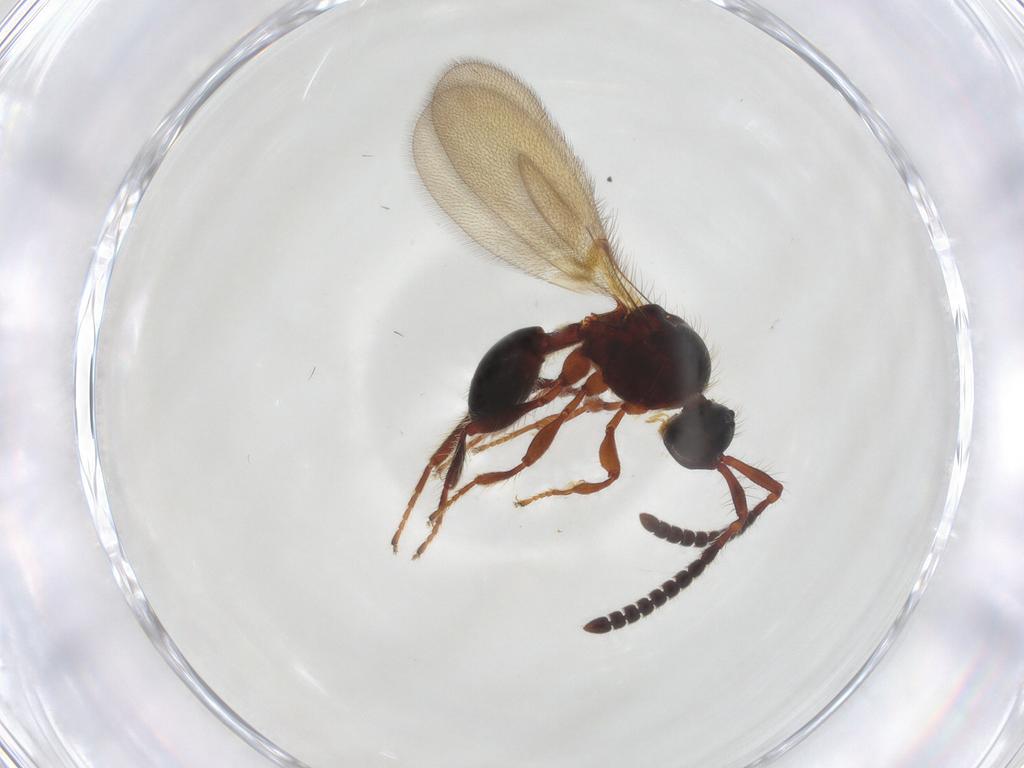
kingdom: Animalia
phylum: Arthropoda
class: Insecta
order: Hymenoptera
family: Diapriidae
